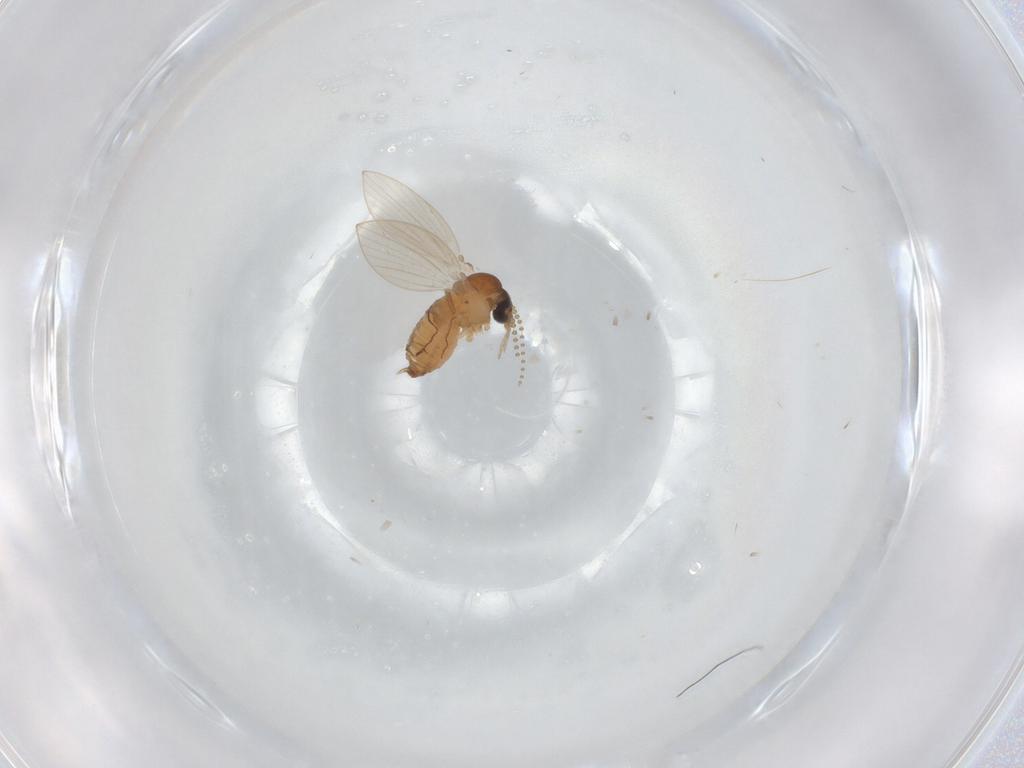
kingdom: Animalia
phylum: Arthropoda
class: Insecta
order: Diptera
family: Psychodidae
